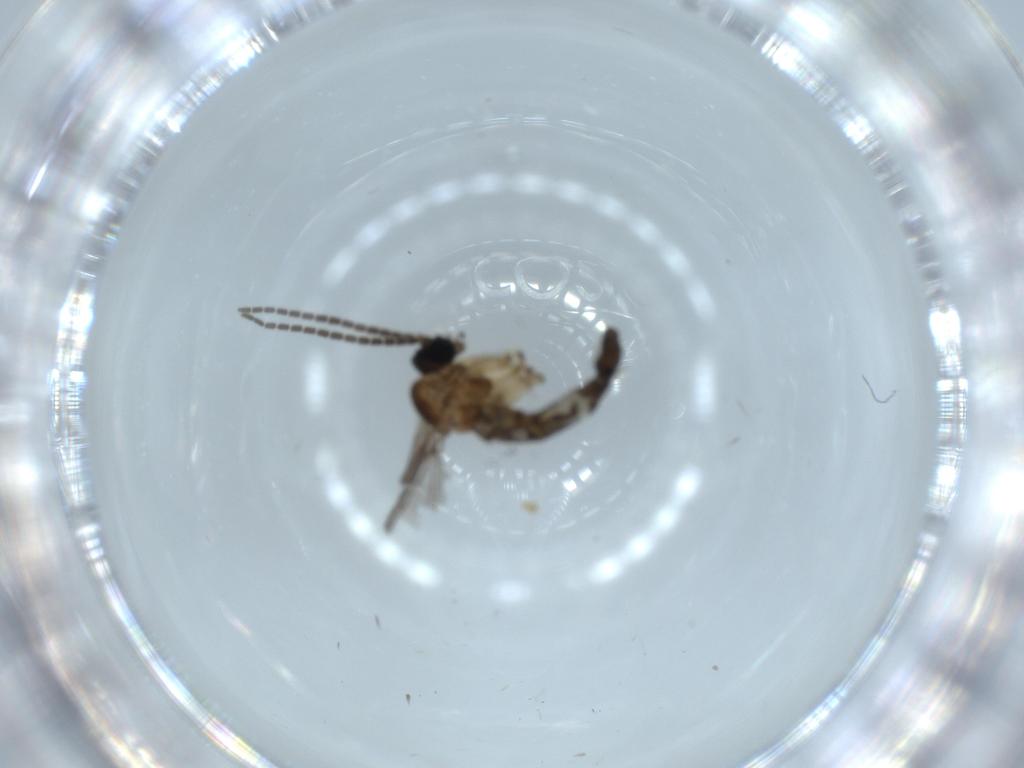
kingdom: Animalia
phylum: Arthropoda
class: Insecta
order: Diptera
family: Sciaridae
